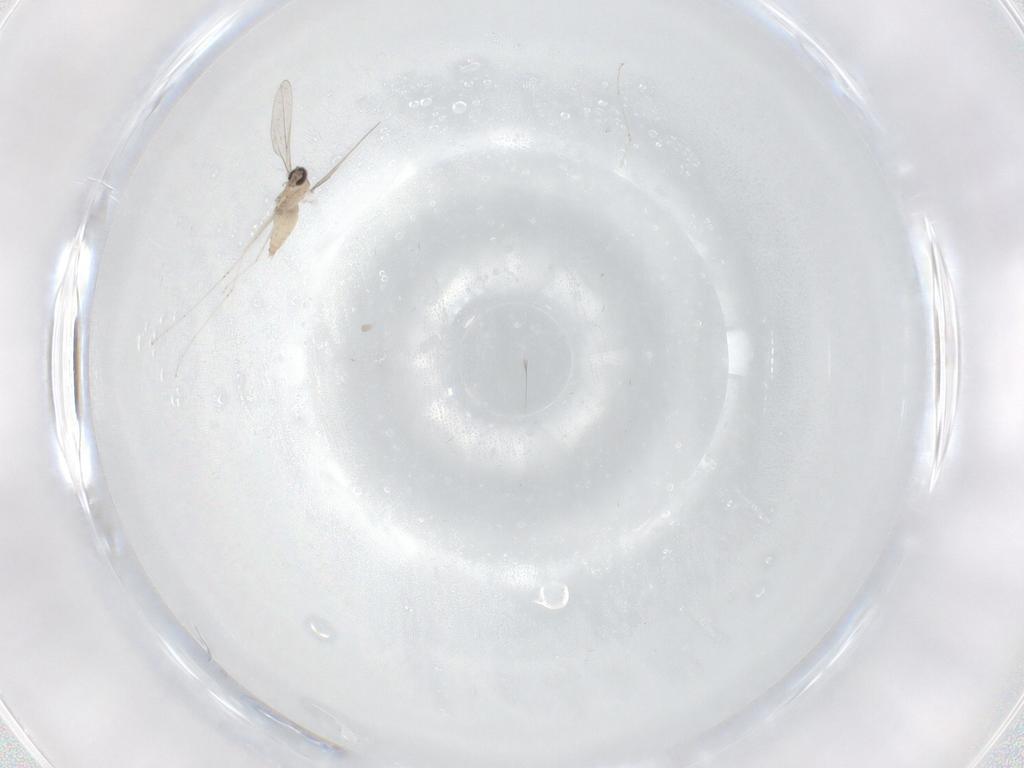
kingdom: Animalia
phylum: Arthropoda
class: Insecta
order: Diptera
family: Cecidomyiidae
